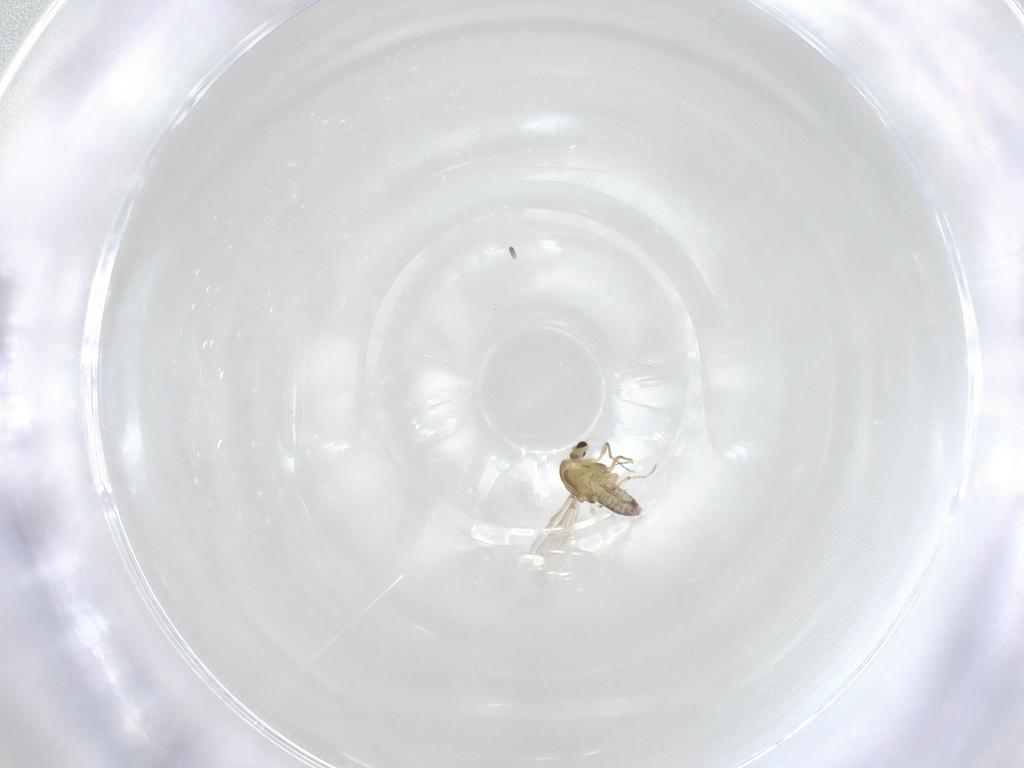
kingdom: Animalia
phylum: Arthropoda
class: Insecta
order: Diptera
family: Chironomidae
